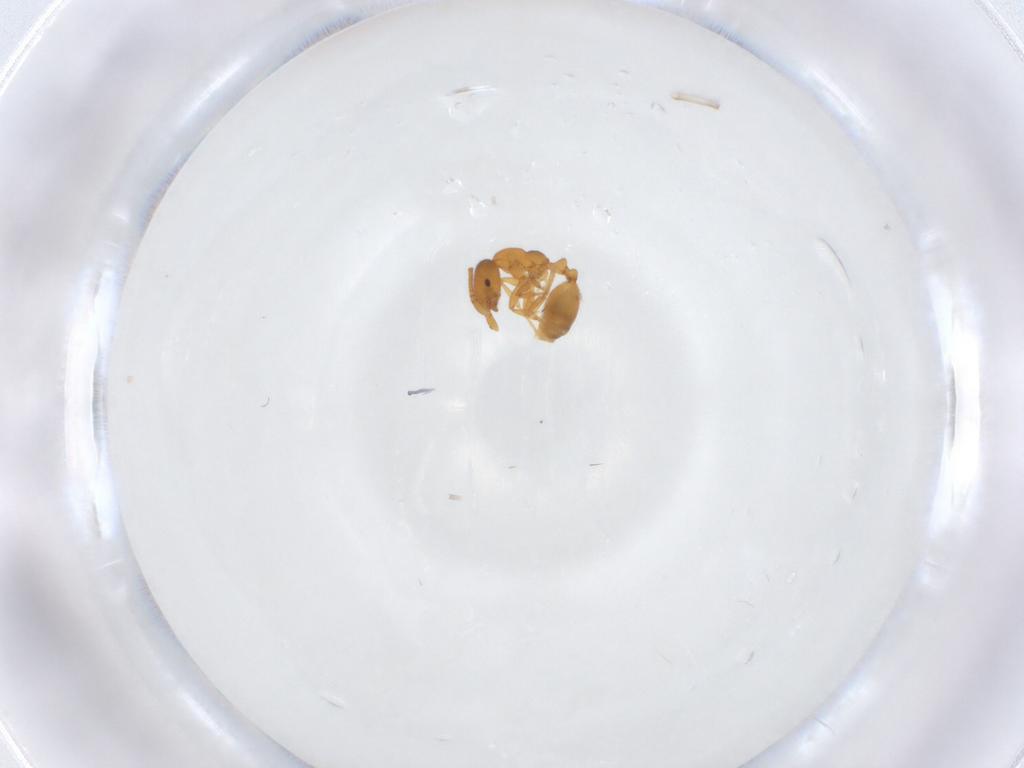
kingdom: Animalia
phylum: Arthropoda
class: Insecta
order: Hymenoptera
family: Formicidae
